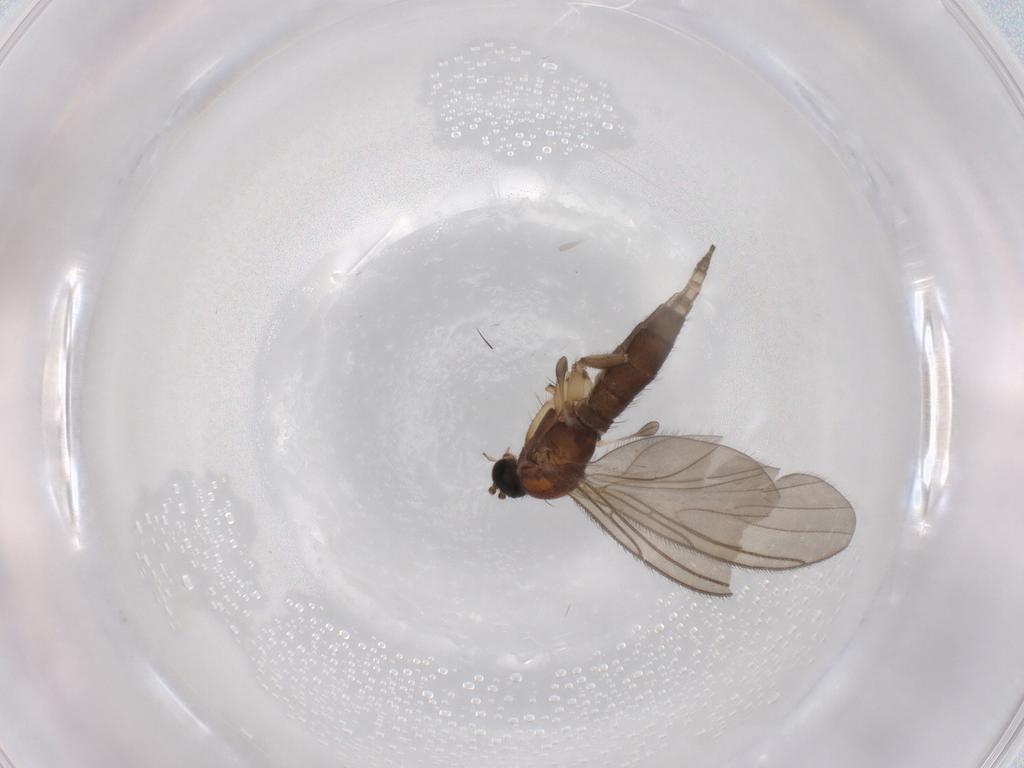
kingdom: Animalia
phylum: Arthropoda
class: Insecta
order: Diptera
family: Sciaridae
